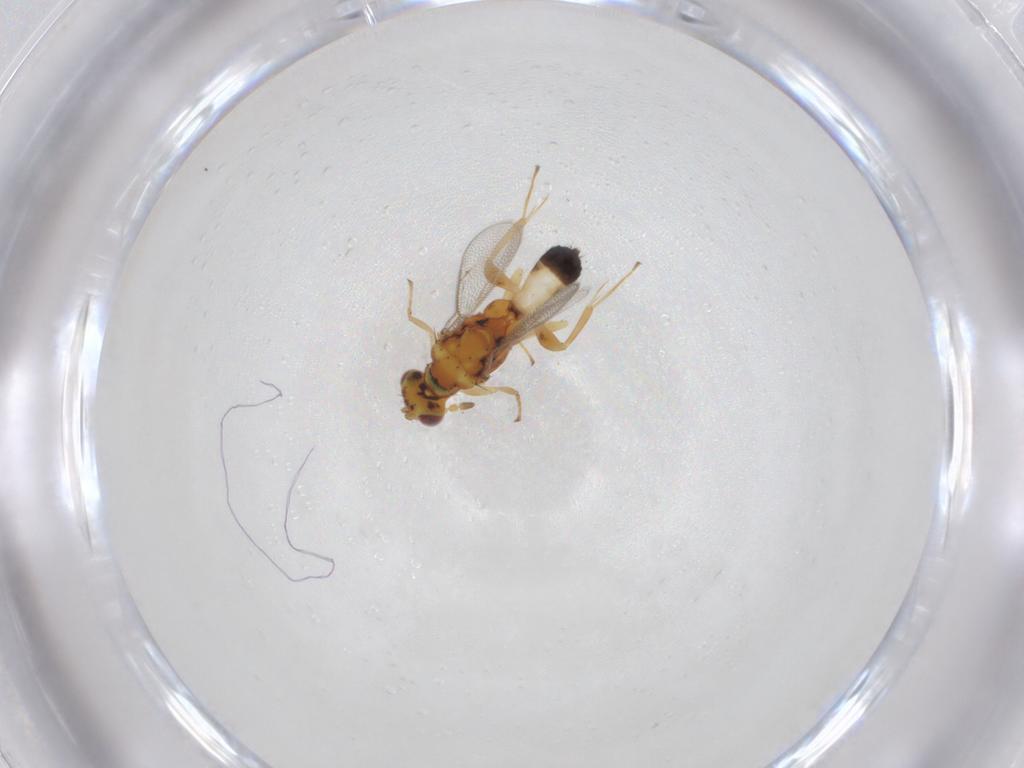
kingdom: Animalia
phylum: Arthropoda
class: Insecta
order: Hymenoptera
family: Eulophidae
